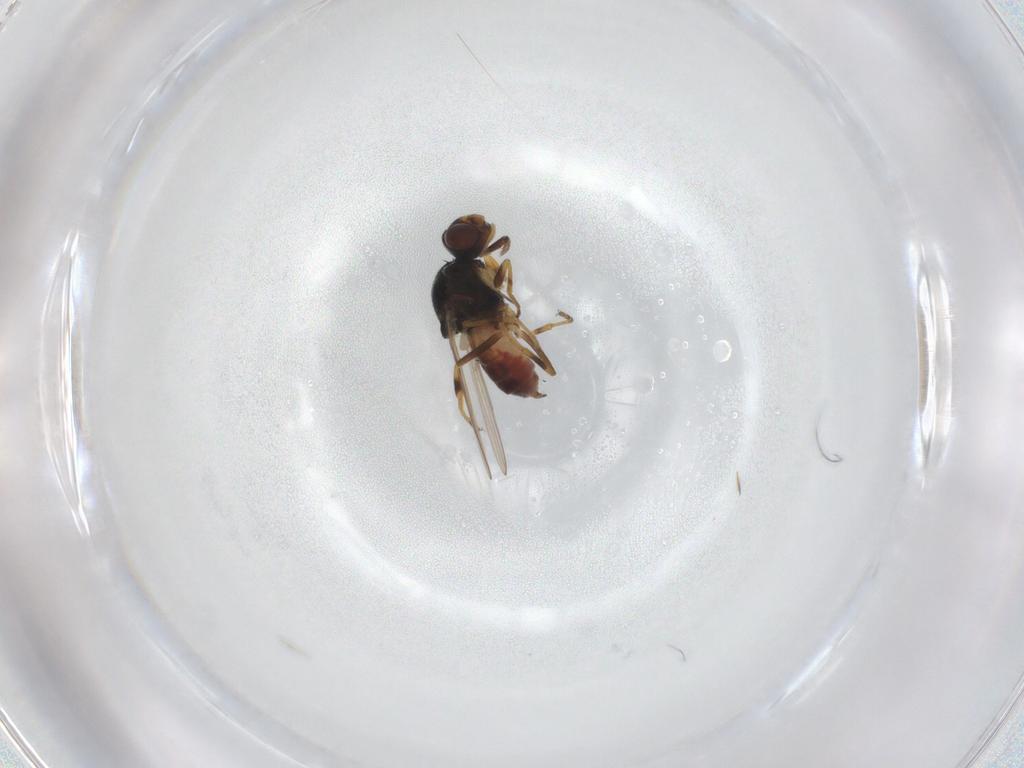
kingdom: Animalia
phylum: Arthropoda
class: Insecta
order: Diptera
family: Chloropidae
